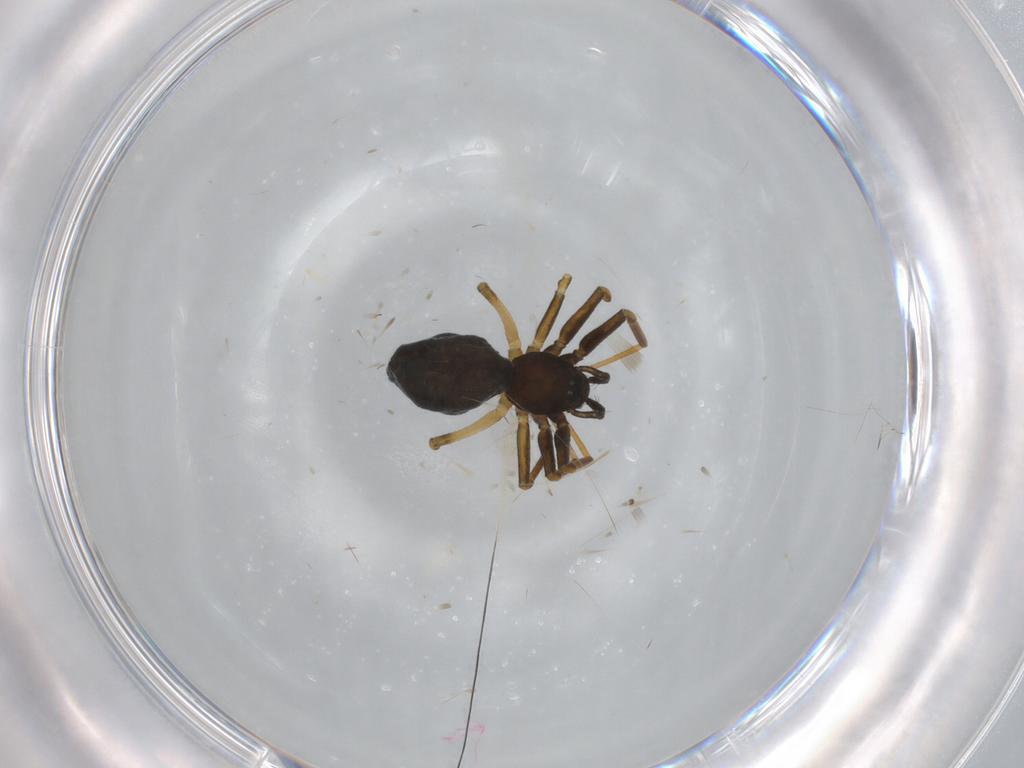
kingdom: Animalia
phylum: Arthropoda
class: Arachnida
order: Araneae
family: Linyphiidae
